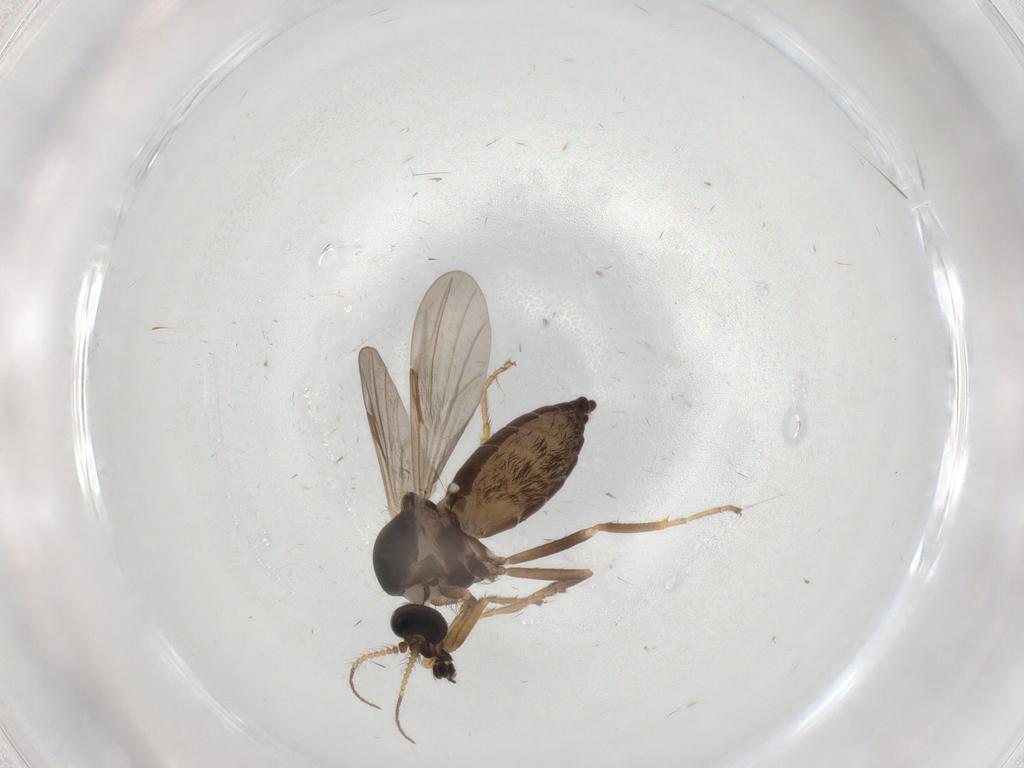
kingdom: Animalia
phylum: Arthropoda
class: Insecta
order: Diptera
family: Ceratopogonidae
